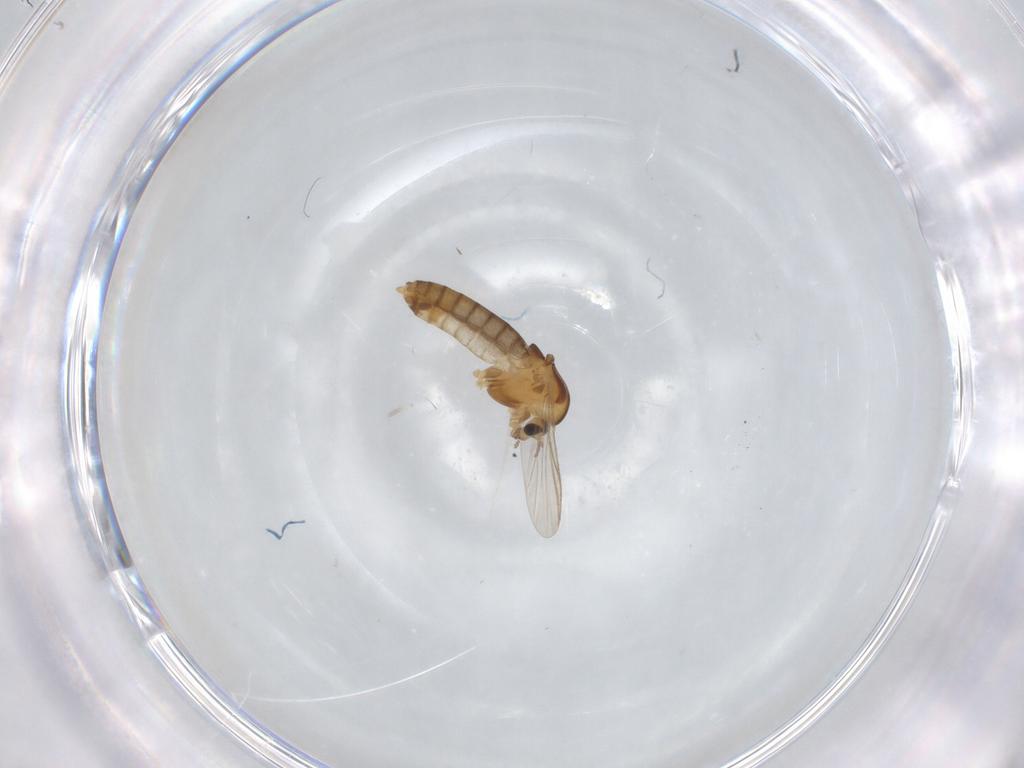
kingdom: Animalia
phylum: Arthropoda
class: Insecta
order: Diptera
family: Chironomidae
